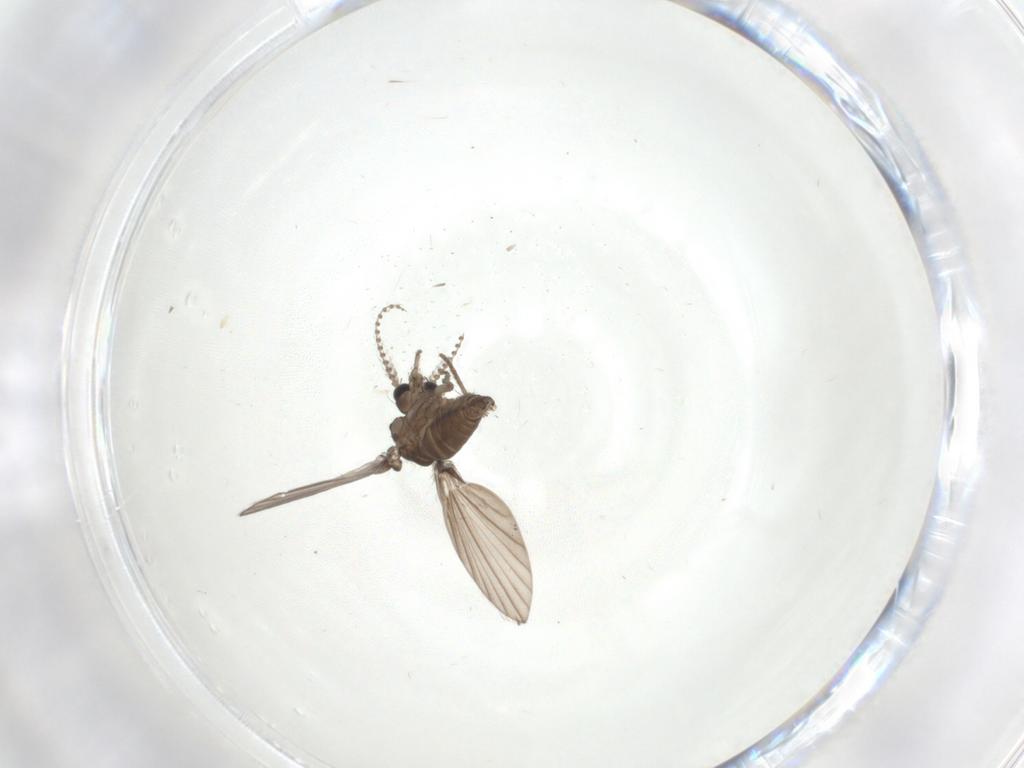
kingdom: Animalia
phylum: Arthropoda
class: Insecta
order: Diptera
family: Psychodidae
